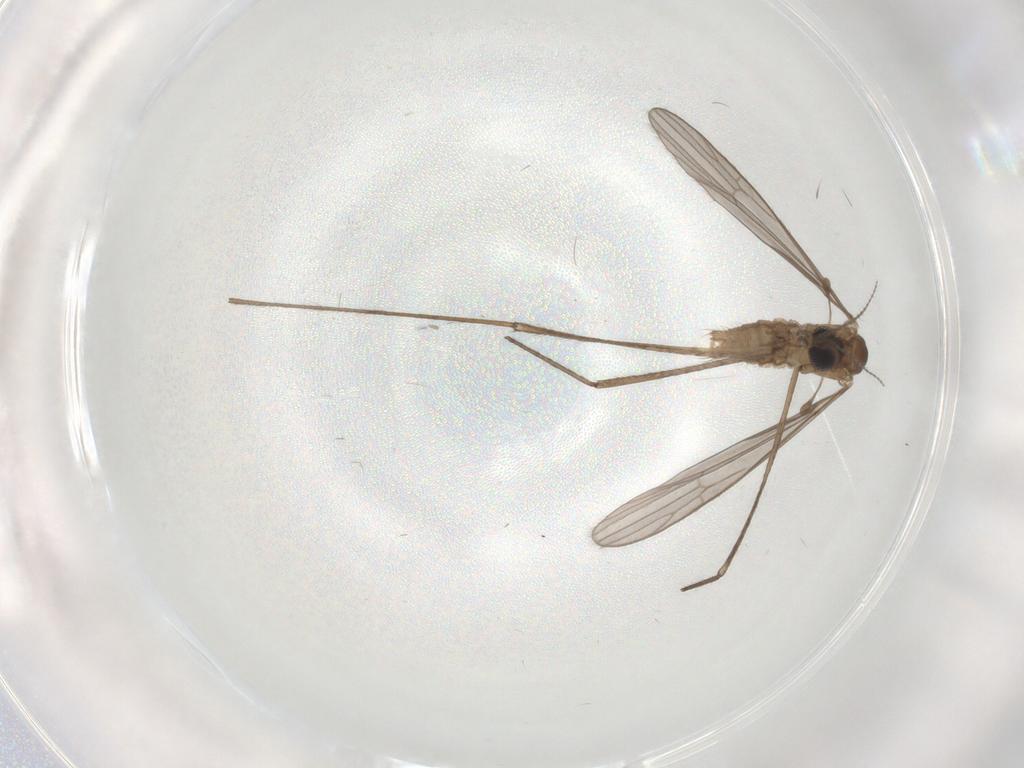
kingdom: Animalia
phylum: Arthropoda
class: Insecta
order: Diptera
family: Limoniidae
